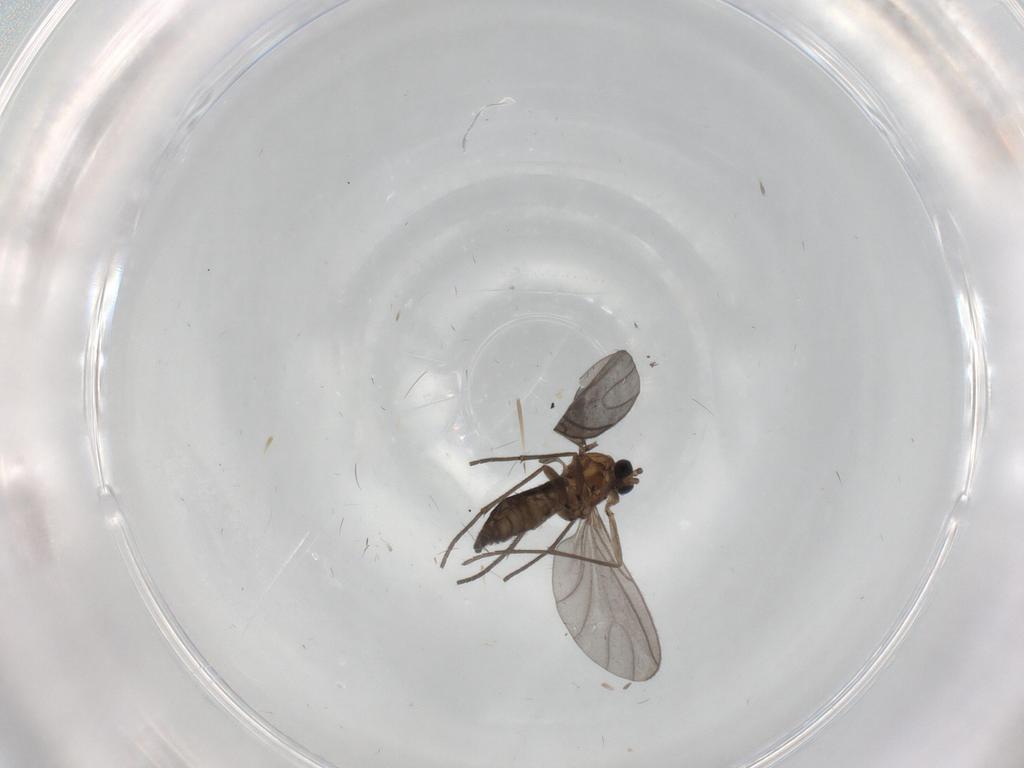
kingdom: Animalia
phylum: Arthropoda
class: Insecta
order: Diptera
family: Sciaridae
